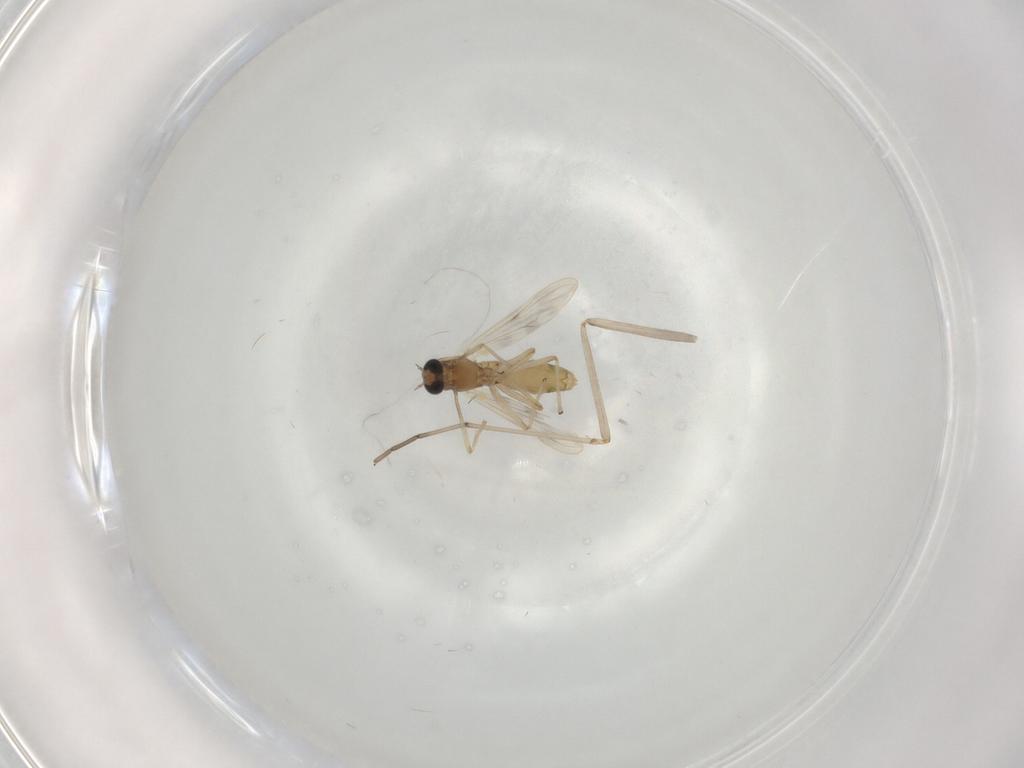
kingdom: Animalia
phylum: Arthropoda
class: Insecta
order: Diptera
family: Chironomidae
